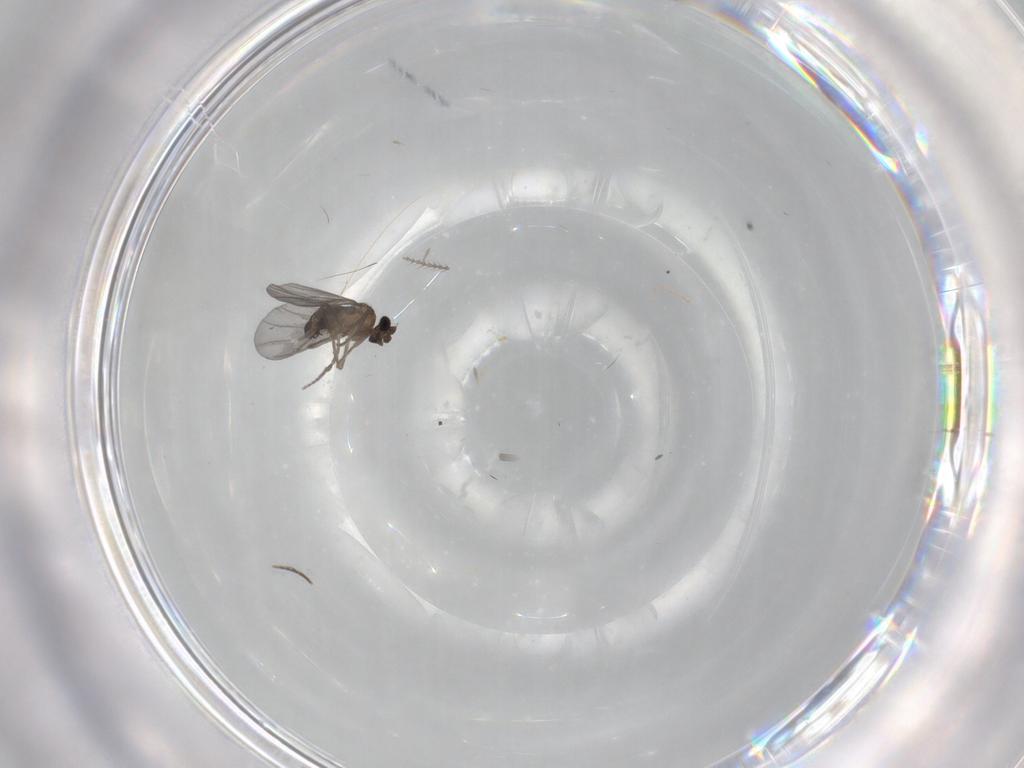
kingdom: Animalia
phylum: Arthropoda
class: Insecta
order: Diptera
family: Phoridae
